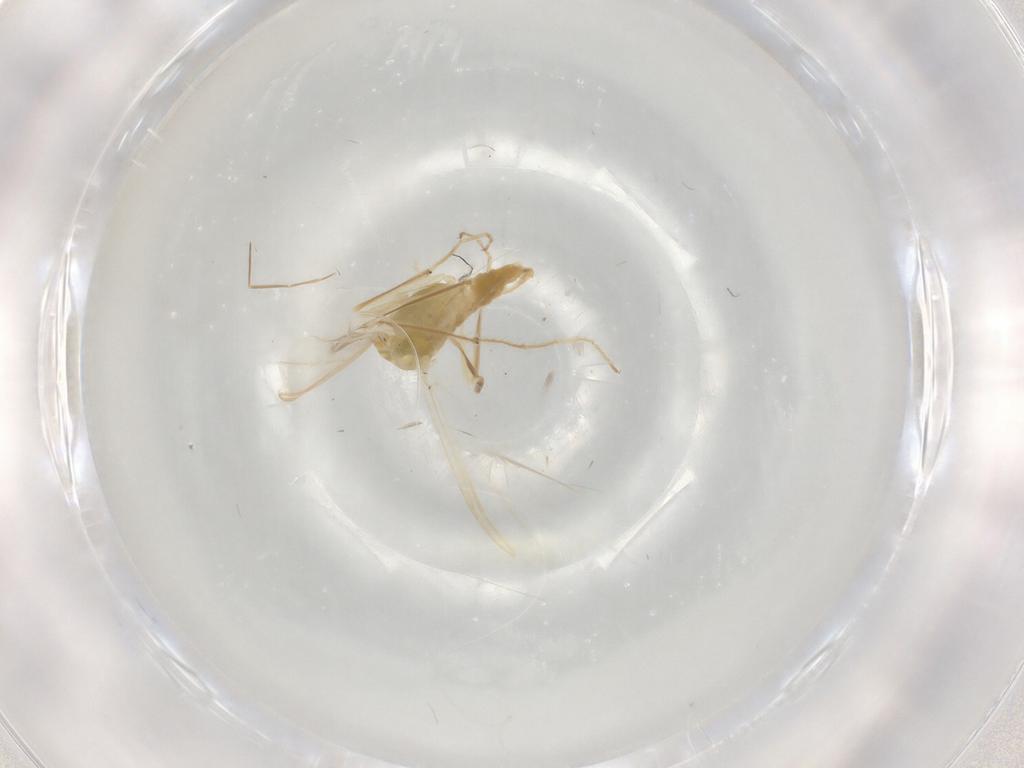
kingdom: Animalia
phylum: Arthropoda
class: Insecta
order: Diptera
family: Chironomidae
